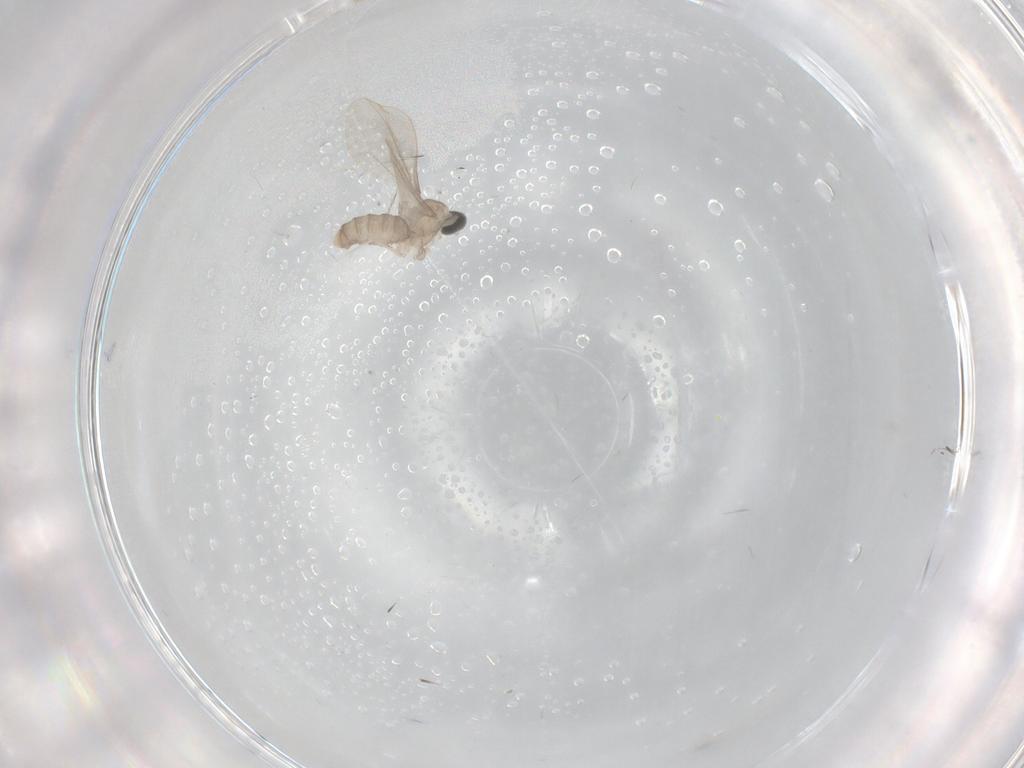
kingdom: Animalia
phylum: Arthropoda
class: Insecta
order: Diptera
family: Cecidomyiidae
